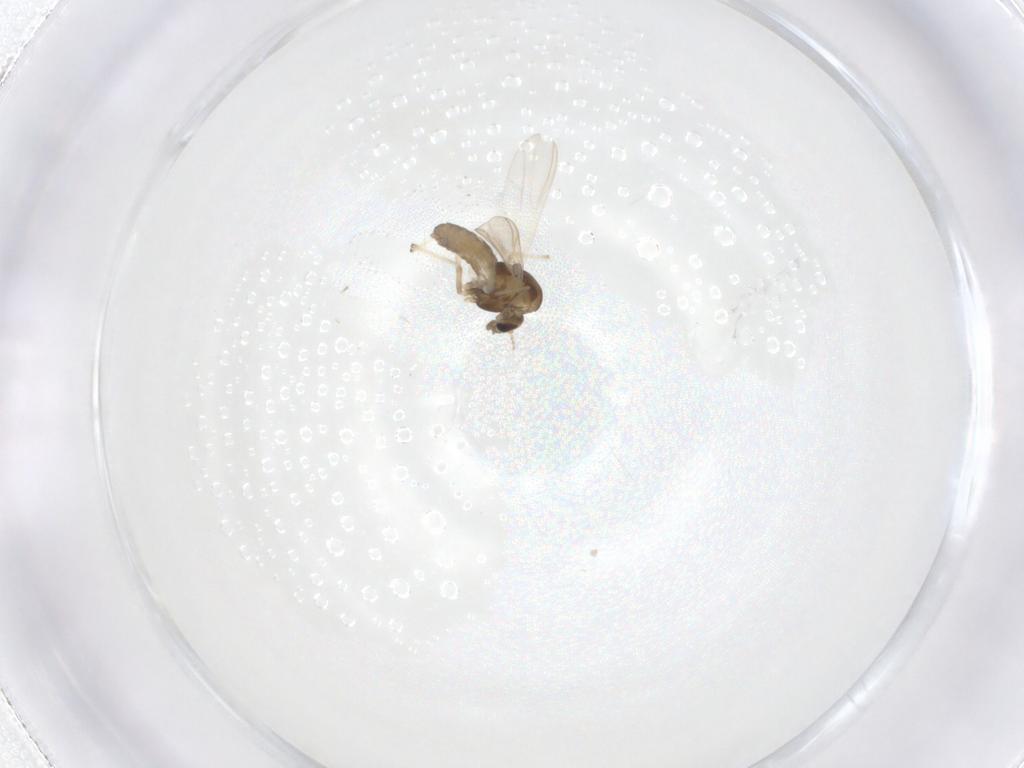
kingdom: Animalia
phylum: Arthropoda
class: Insecta
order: Diptera
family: Chironomidae
